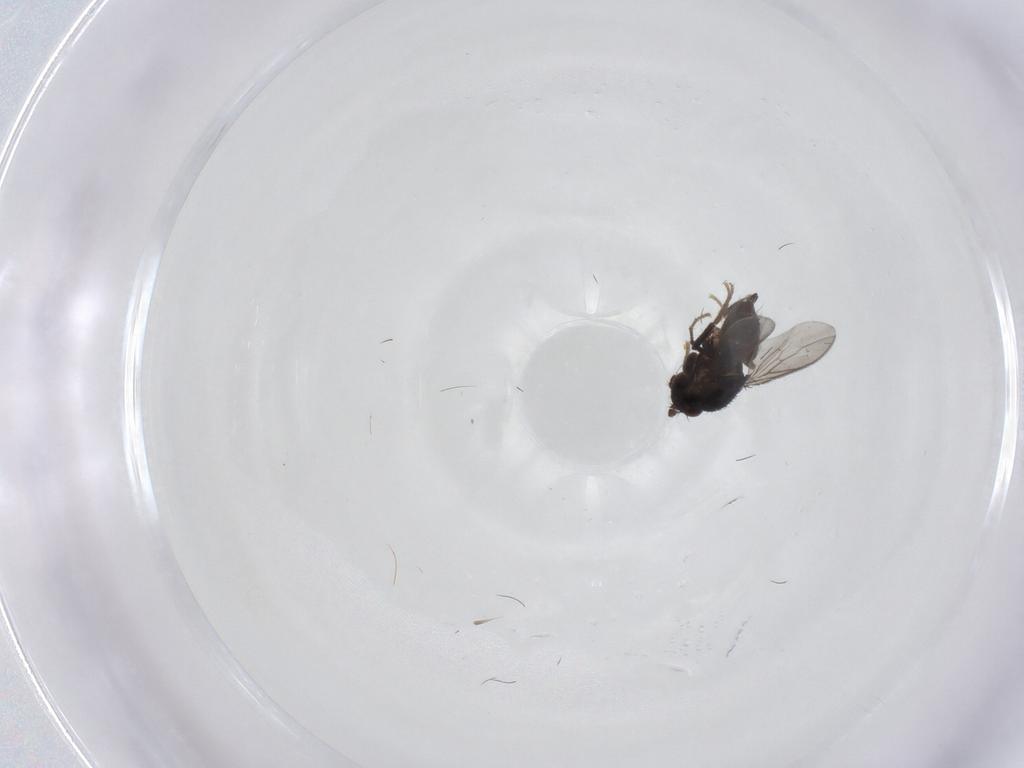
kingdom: Animalia
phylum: Arthropoda
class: Insecta
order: Diptera
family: Sphaeroceridae
